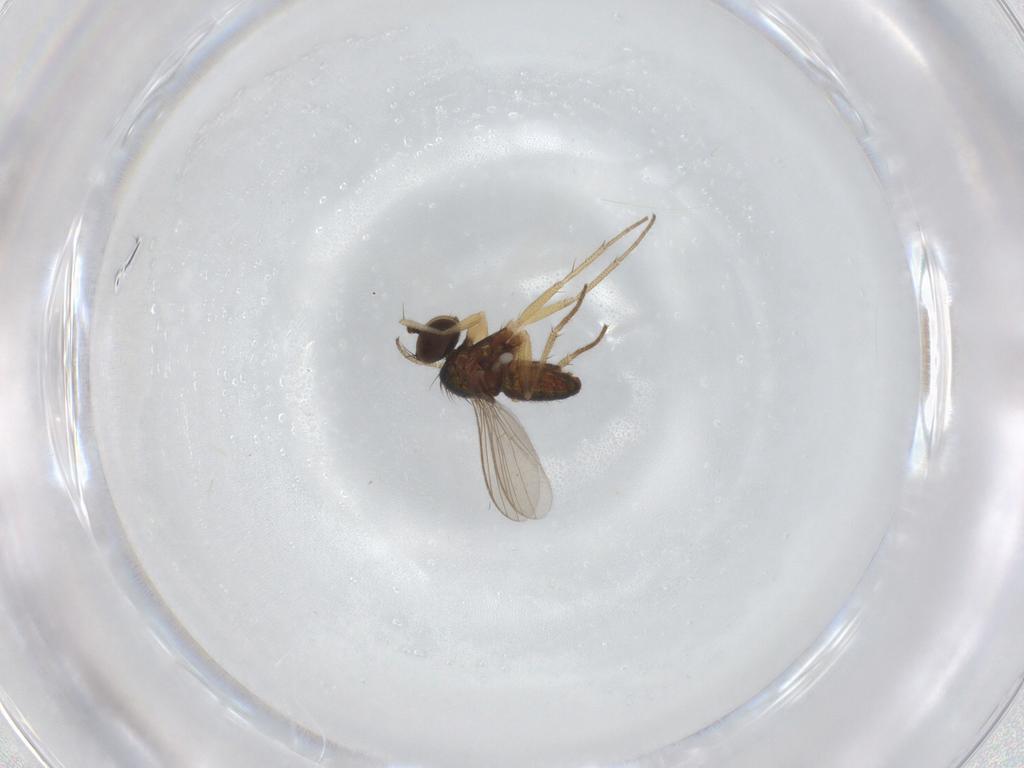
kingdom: Animalia
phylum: Arthropoda
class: Insecta
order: Diptera
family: Dolichopodidae
